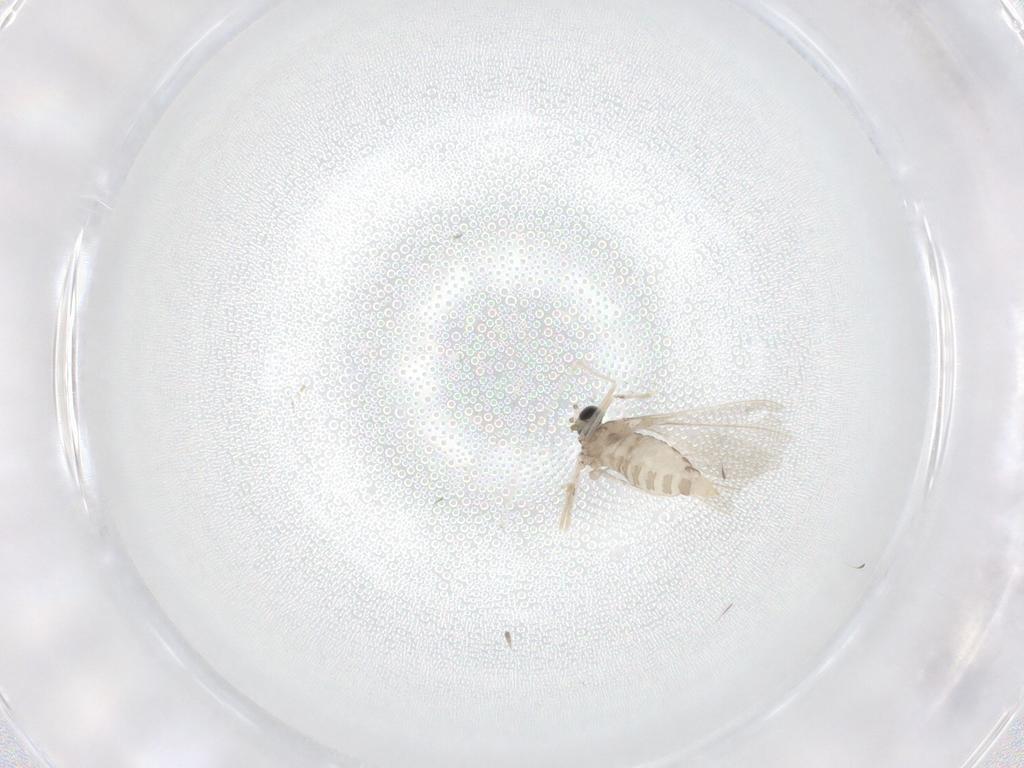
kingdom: Animalia
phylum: Arthropoda
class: Insecta
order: Diptera
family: Cecidomyiidae
